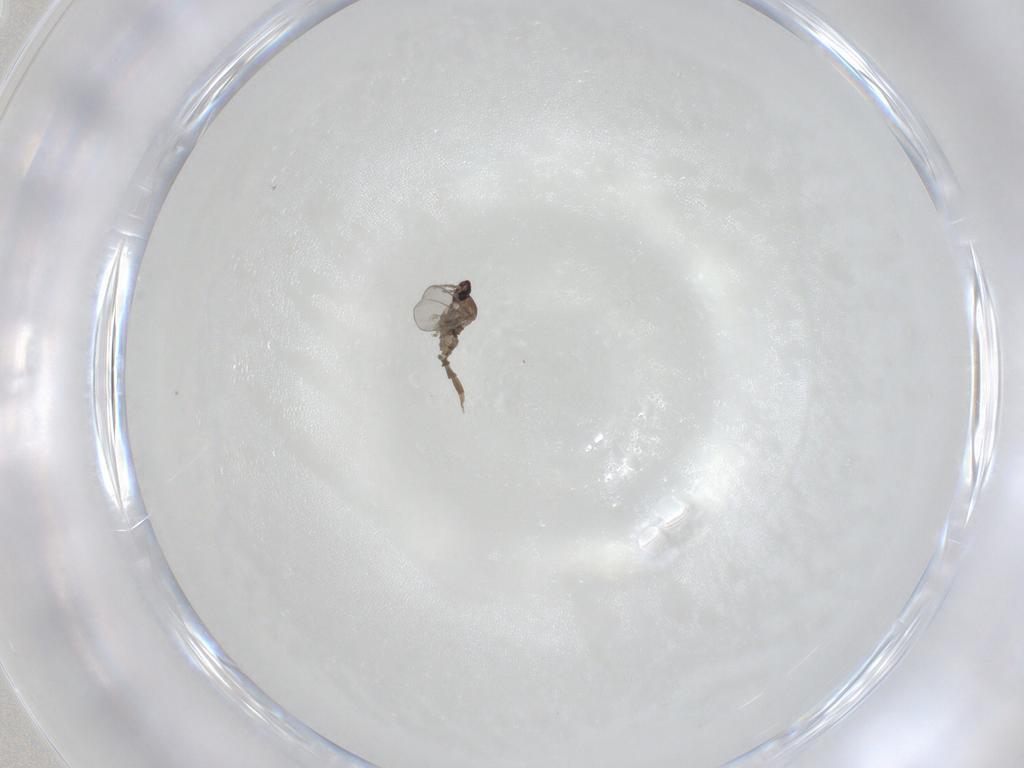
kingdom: Animalia
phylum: Arthropoda
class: Insecta
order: Diptera
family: Cecidomyiidae
